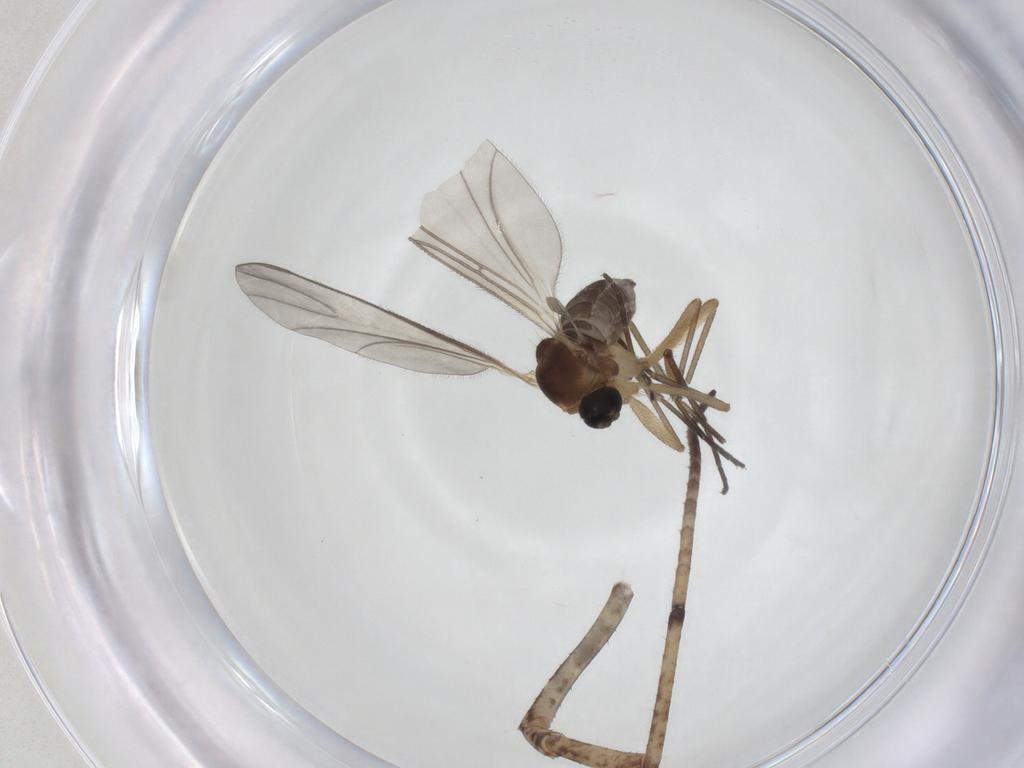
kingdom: Animalia
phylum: Arthropoda
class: Insecta
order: Diptera
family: Sciaridae
